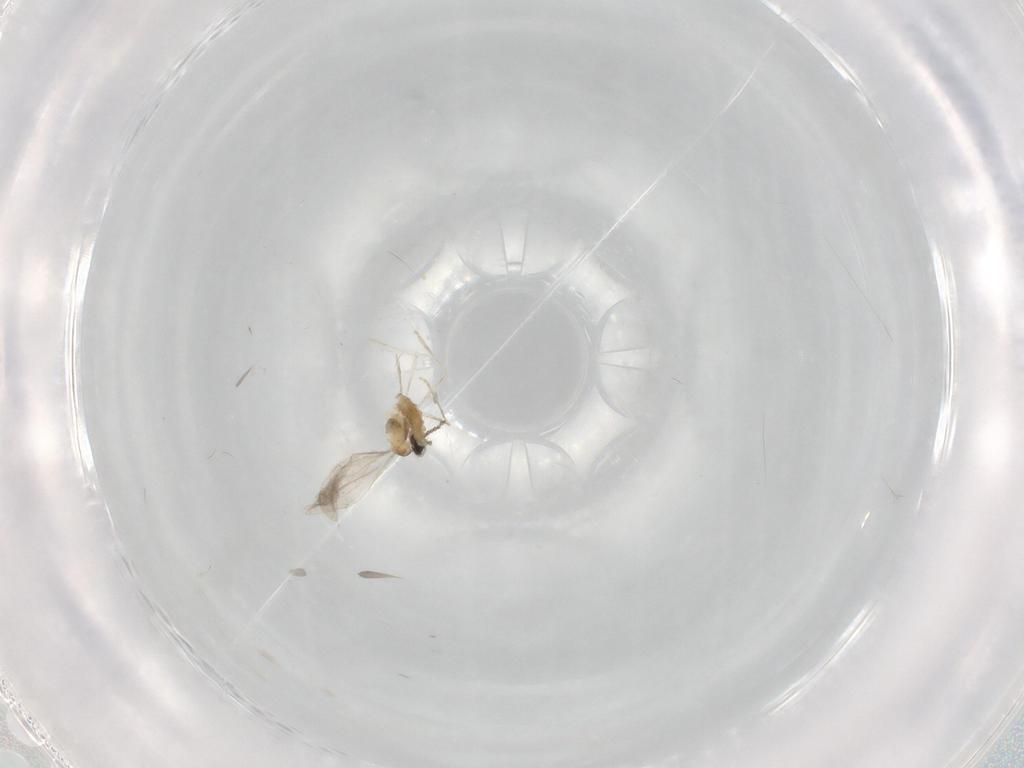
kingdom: Animalia
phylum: Arthropoda
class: Insecta
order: Diptera
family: Cecidomyiidae
